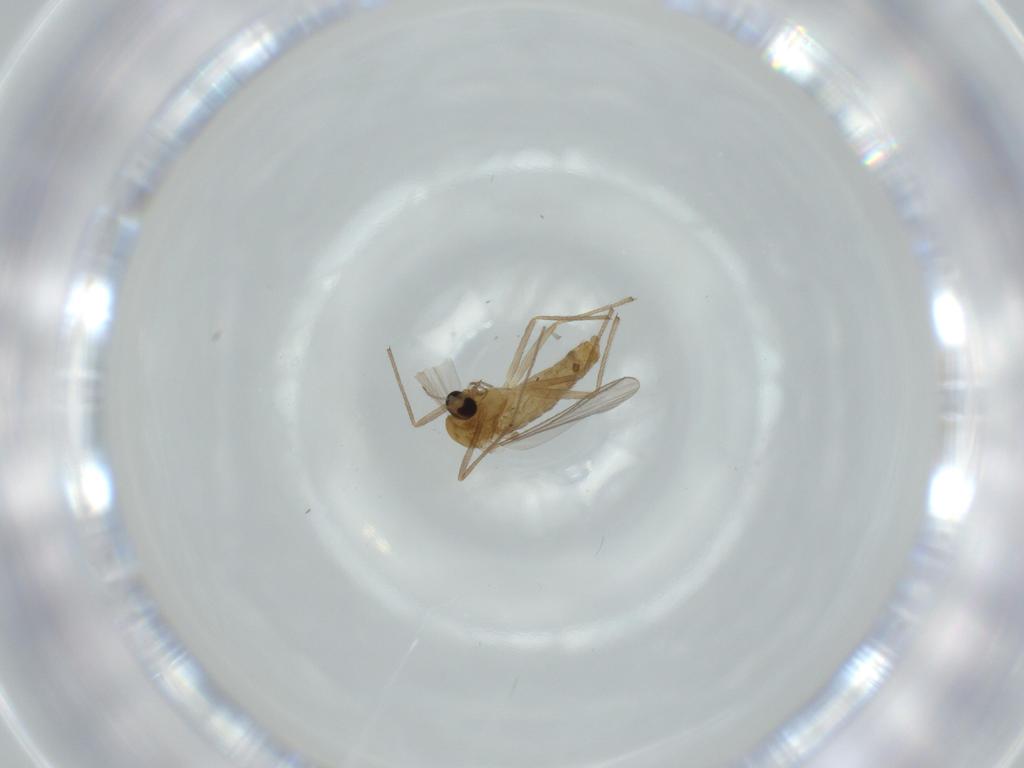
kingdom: Animalia
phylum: Arthropoda
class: Insecta
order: Diptera
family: Chironomidae
